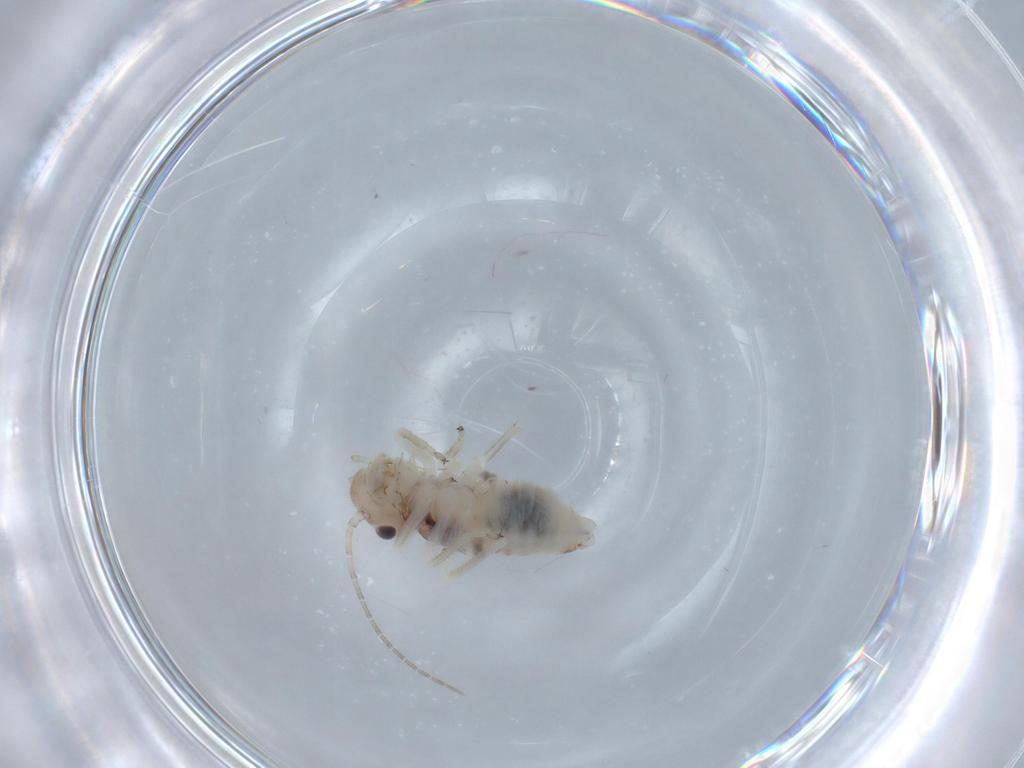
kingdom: Animalia
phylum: Arthropoda
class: Insecta
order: Psocodea
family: Amphipsocidae
